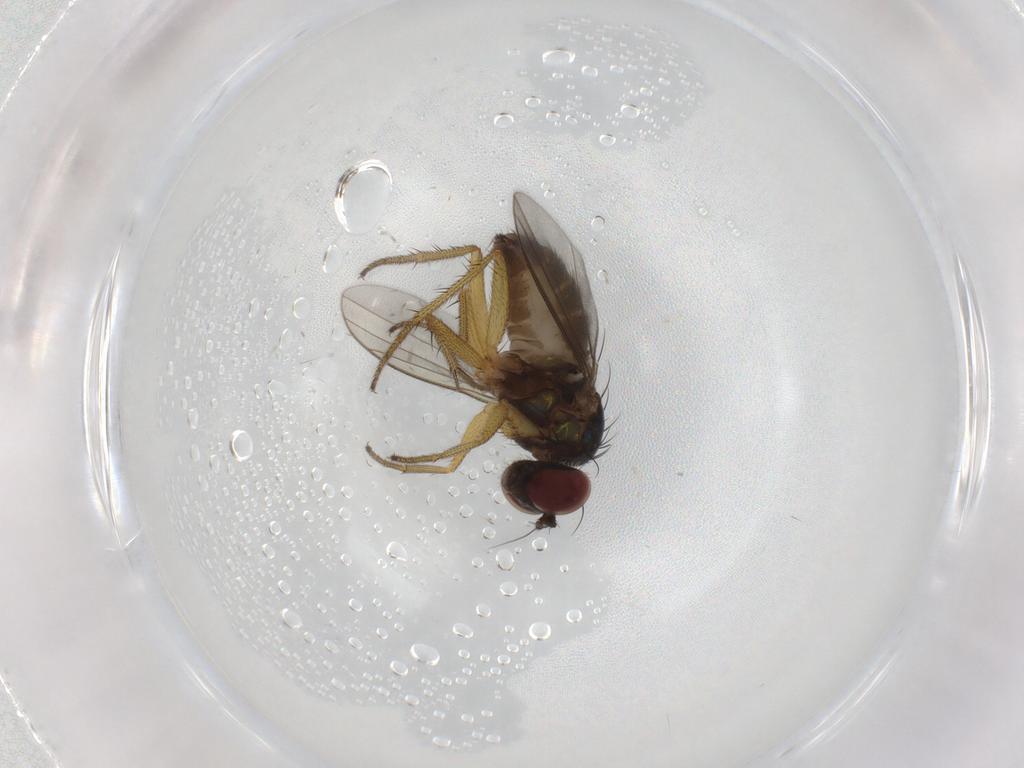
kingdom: Animalia
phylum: Arthropoda
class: Insecta
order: Diptera
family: Dolichopodidae
